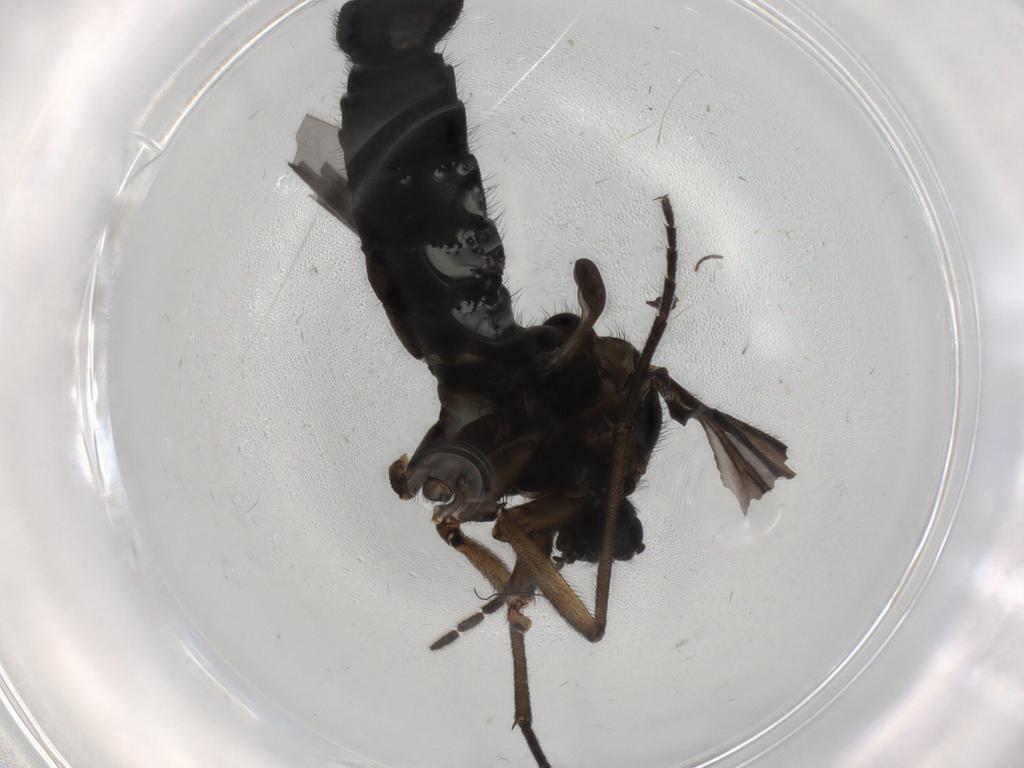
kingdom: Animalia
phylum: Arthropoda
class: Insecta
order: Diptera
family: Sciaridae
